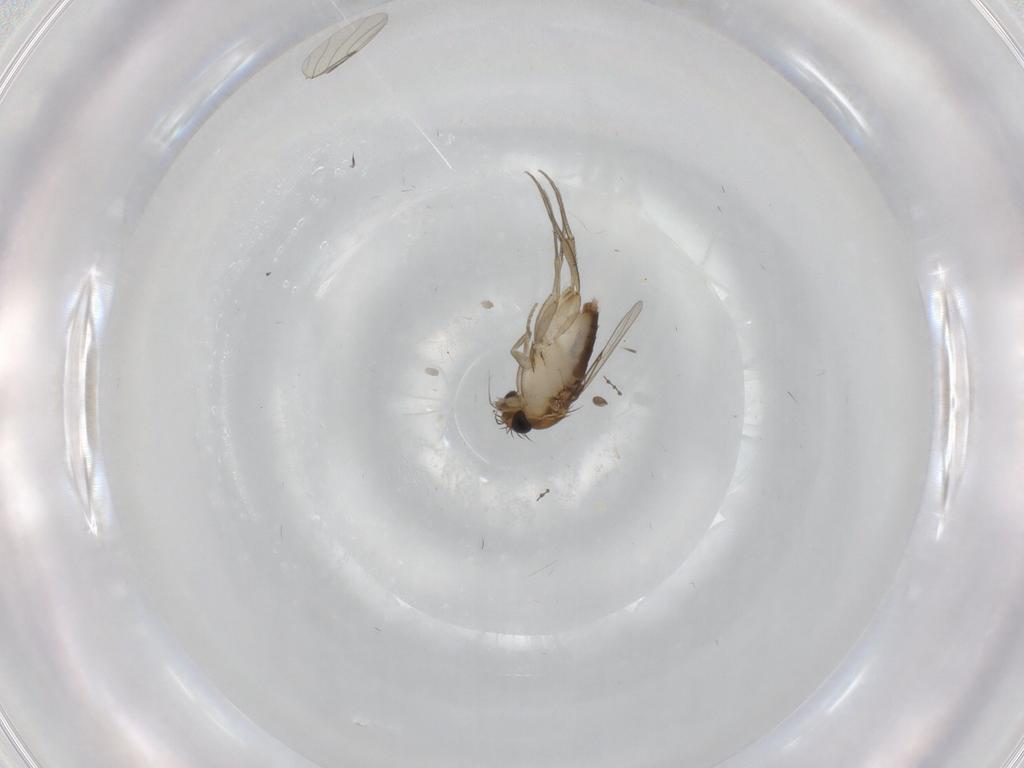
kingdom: Animalia
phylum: Arthropoda
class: Insecta
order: Diptera
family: Phoridae
